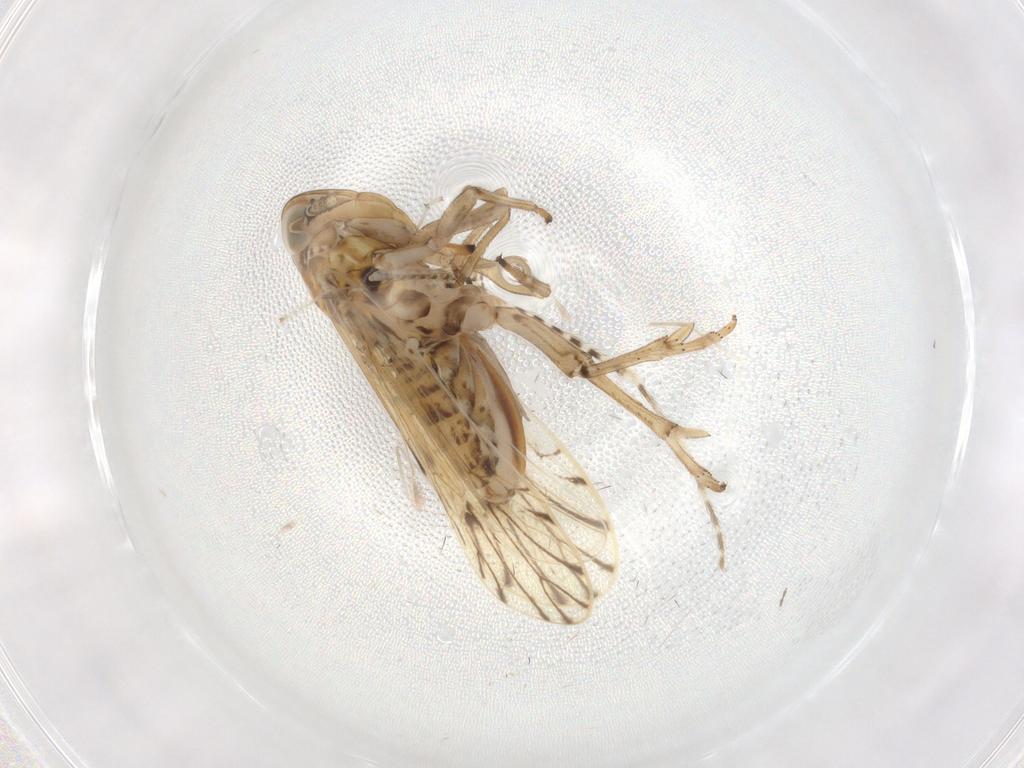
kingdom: Animalia
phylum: Arthropoda
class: Insecta
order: Hemiptera
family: Delphacidae
